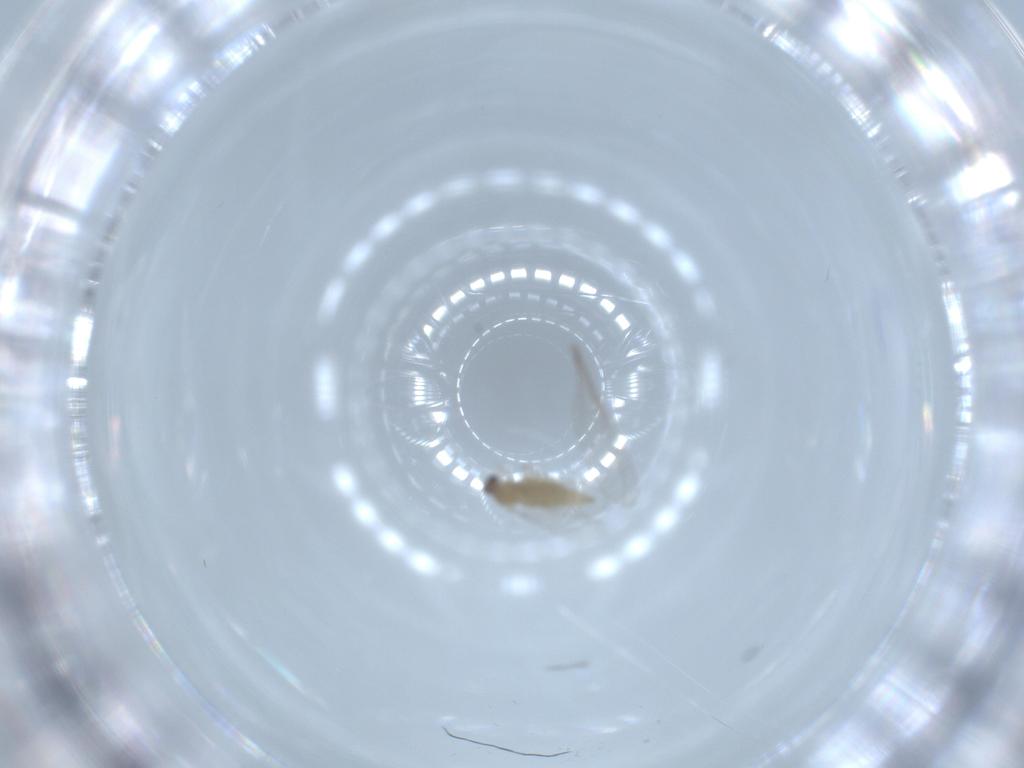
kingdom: Animalia
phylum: Arthropoda
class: Insecta
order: Diptera
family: Cecidomyiidae
